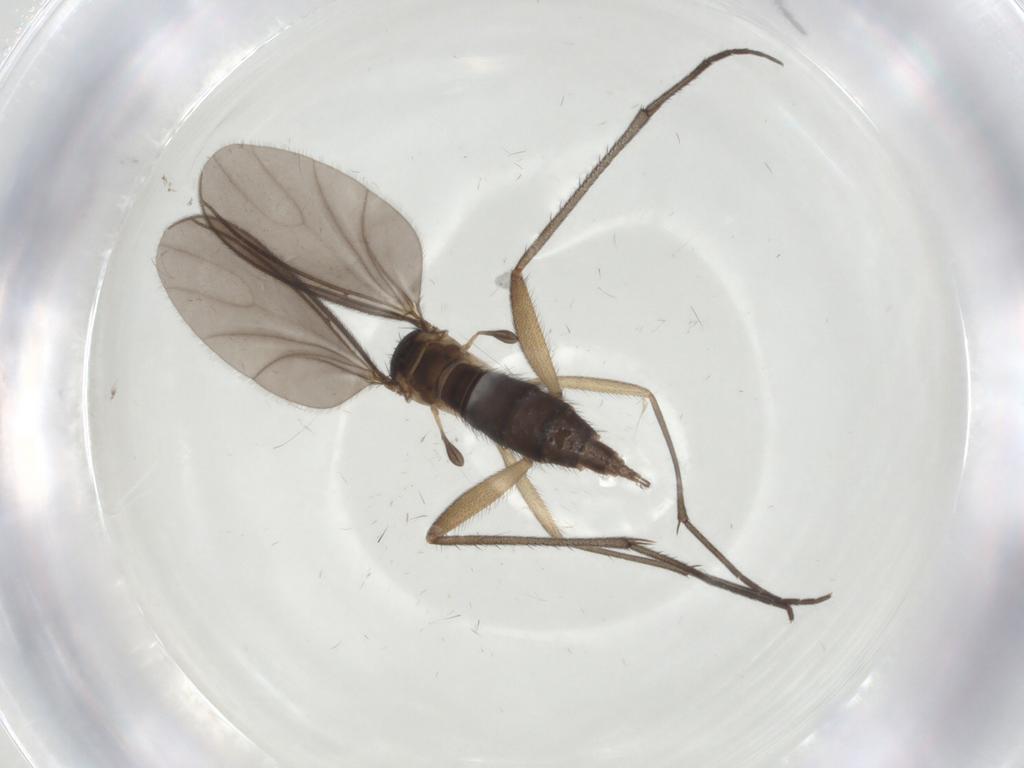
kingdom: Animalia
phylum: Arthropoda
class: Insecta
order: Diptera
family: Sciaridae
